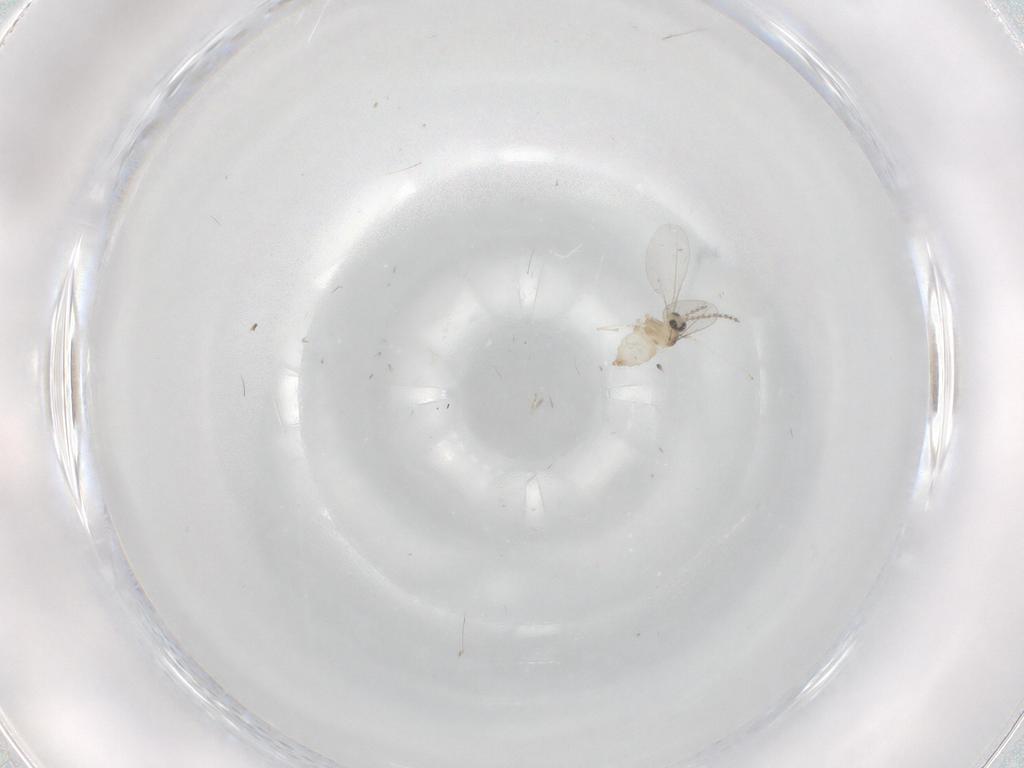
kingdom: Animalia
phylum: Arthropoda
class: Insecta
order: Diptera
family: Cecidomyiidae
